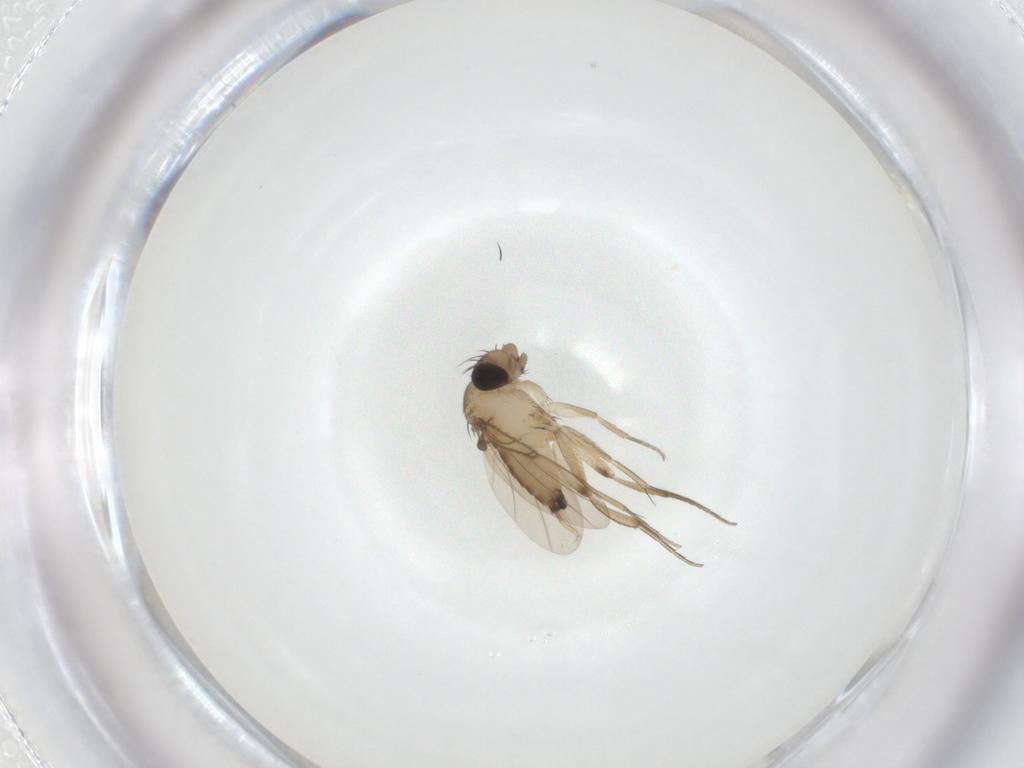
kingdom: Animalia
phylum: Arthropoda
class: Insecta
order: Diptera
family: Phoridae
